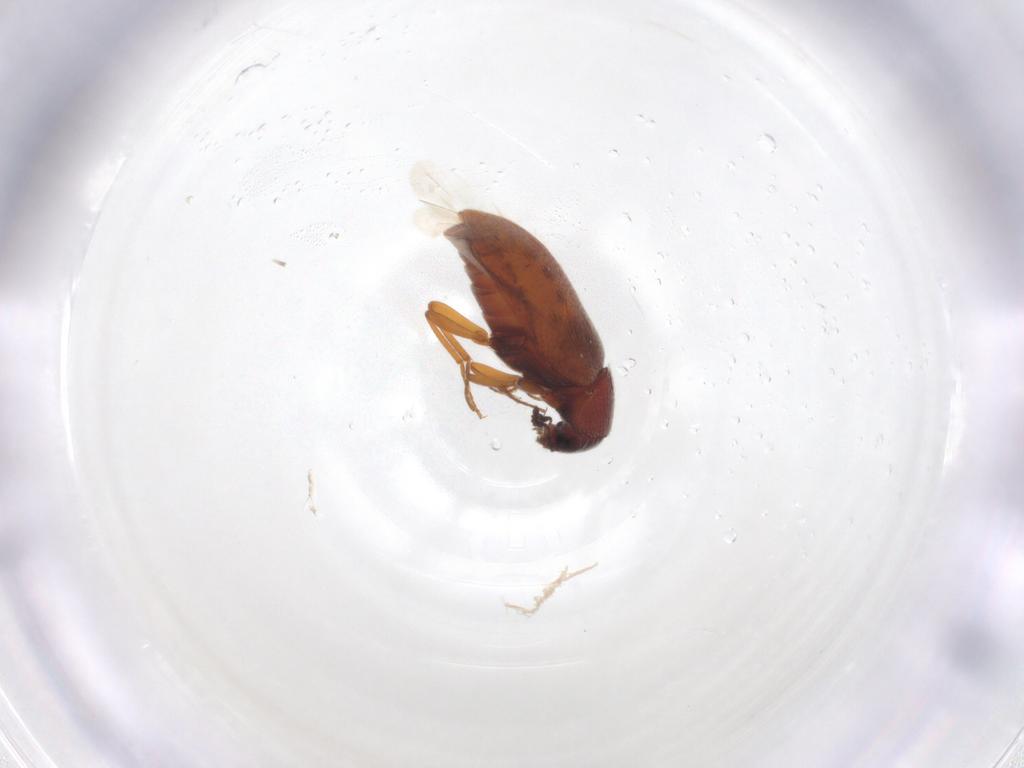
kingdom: Animalia
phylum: Arthropoda
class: Insecta
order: Coleoptera
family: Rhadalidae
